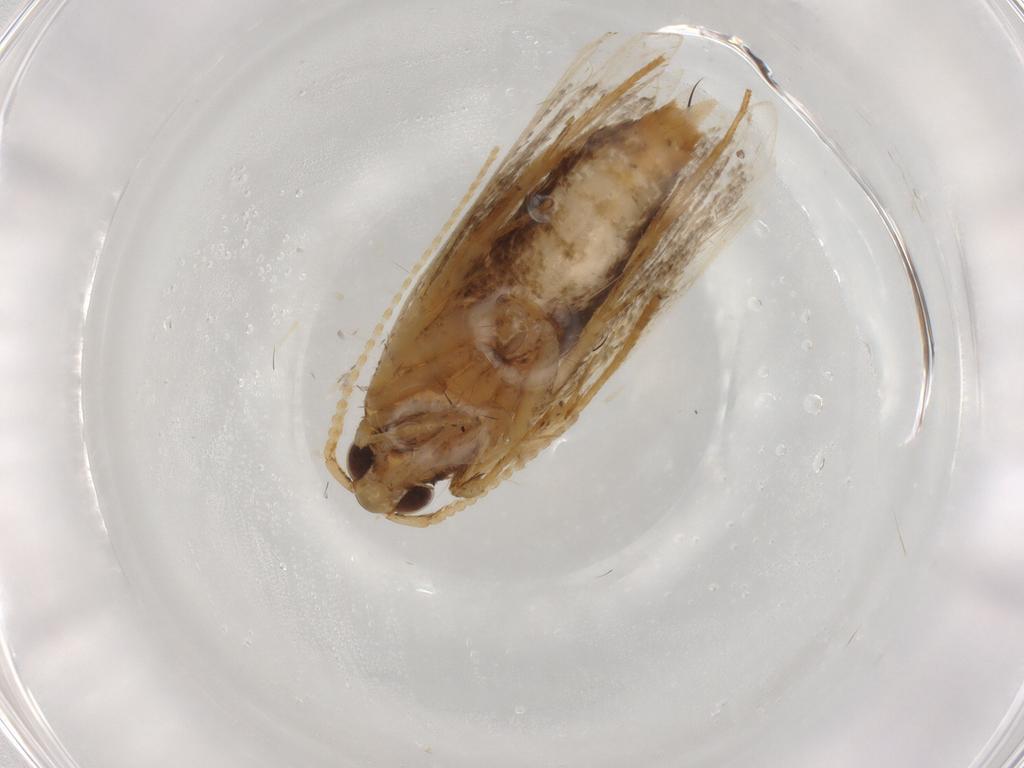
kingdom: Animalia
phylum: Arthropoda
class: Insecta
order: Lepidoptera
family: Lecithoceridae
